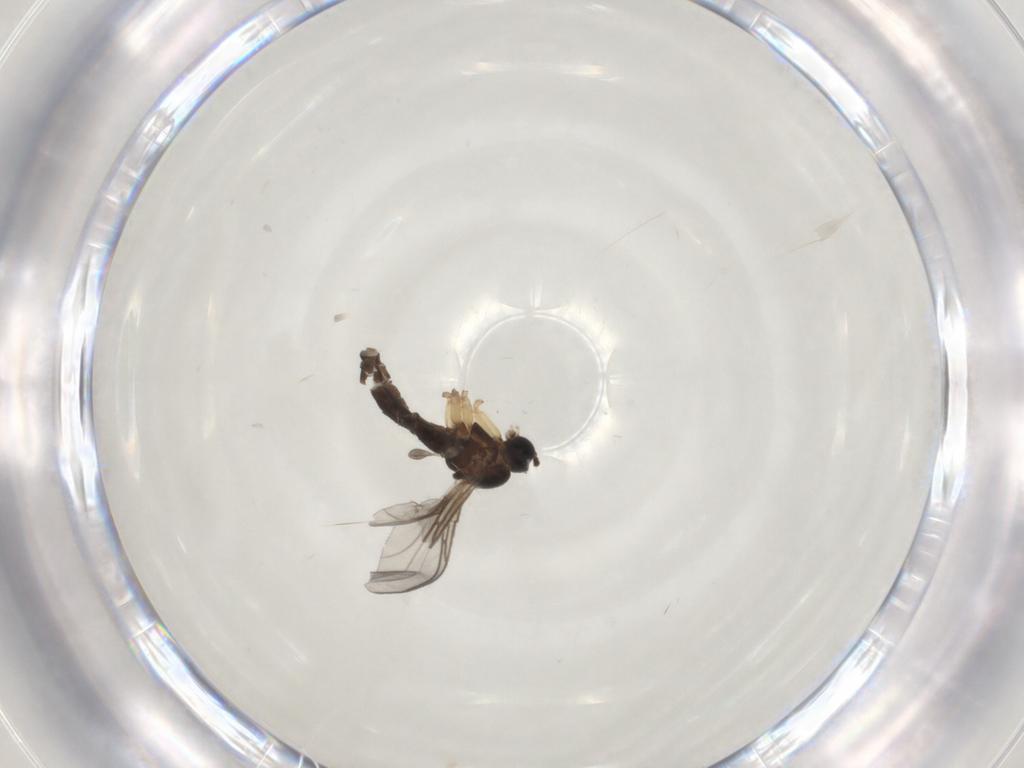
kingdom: Animalia
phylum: Arthropoda
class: Insecta
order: Diptera
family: Sciaridae
